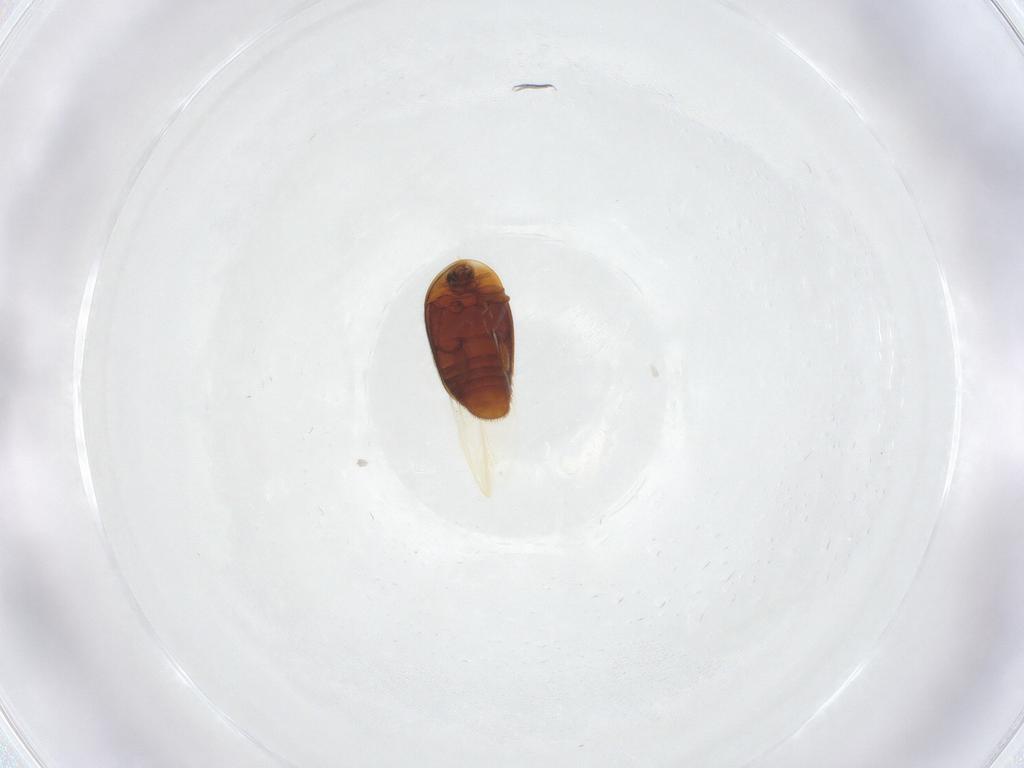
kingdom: Animalia
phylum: Arthropoda
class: Insecta
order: Coleoptera
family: Corylophidae
